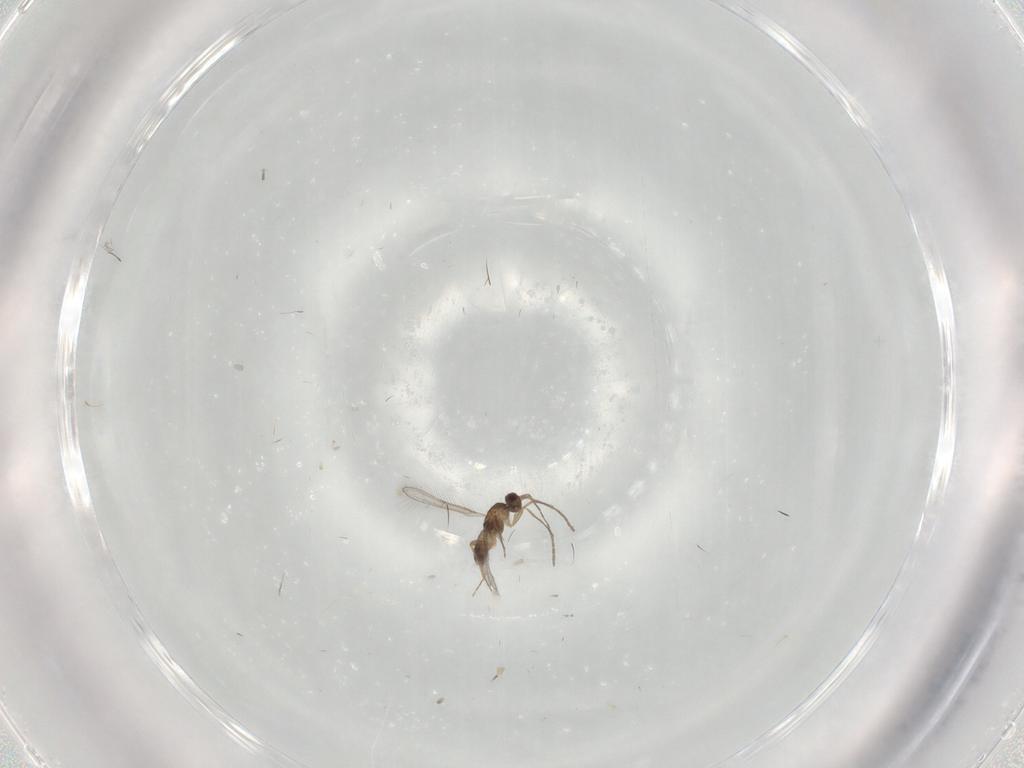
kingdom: Animalia
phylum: Arthropoda
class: Insecta
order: Hymenoptera
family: Mymaridae
